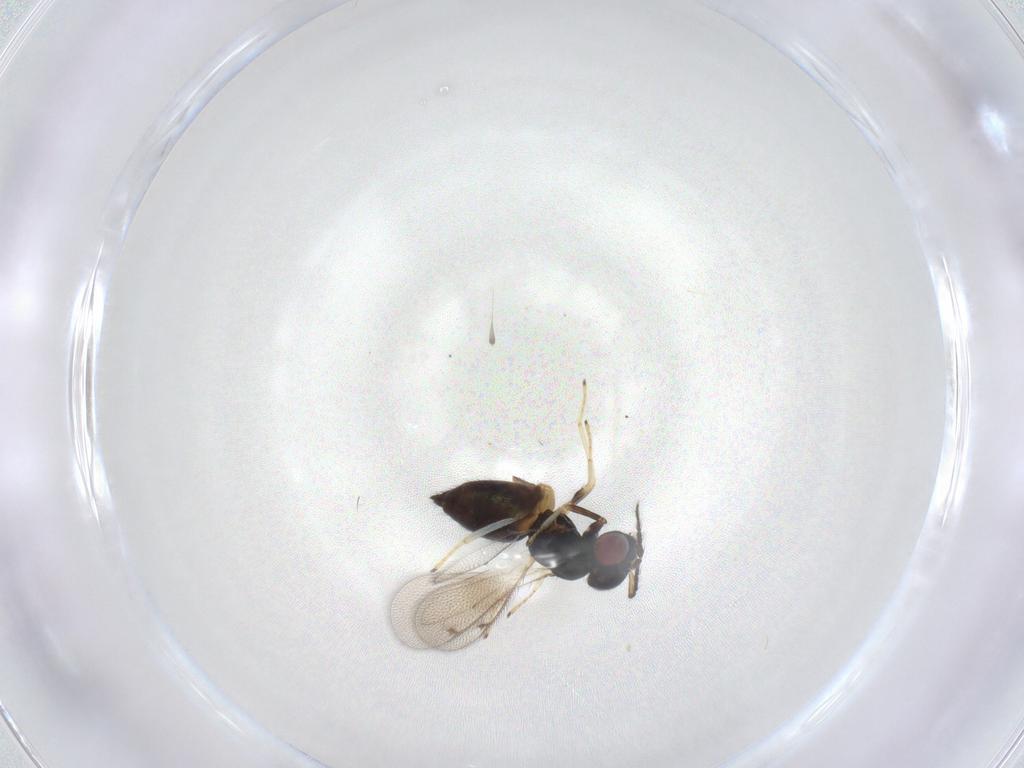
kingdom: Animalia
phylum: Arthropoda
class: Insecta
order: Hymenoptera
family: Eulophidae
